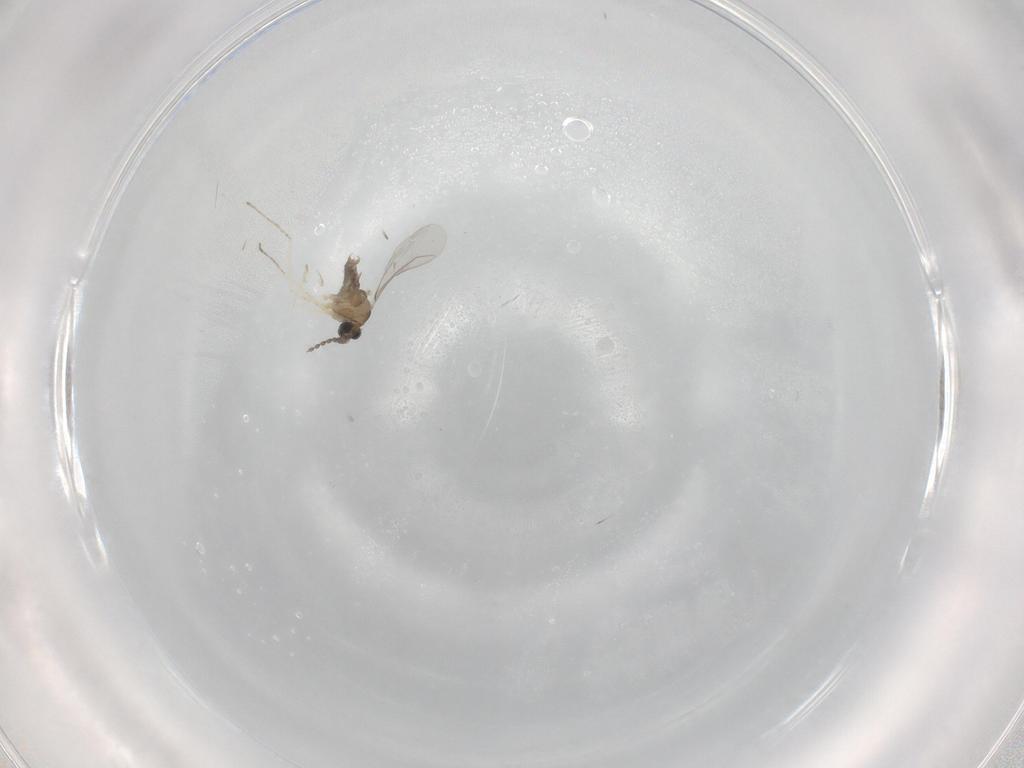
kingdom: Animalia
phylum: Arthropoda
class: Insecta
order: Diptera
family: Cecidomyiidae
